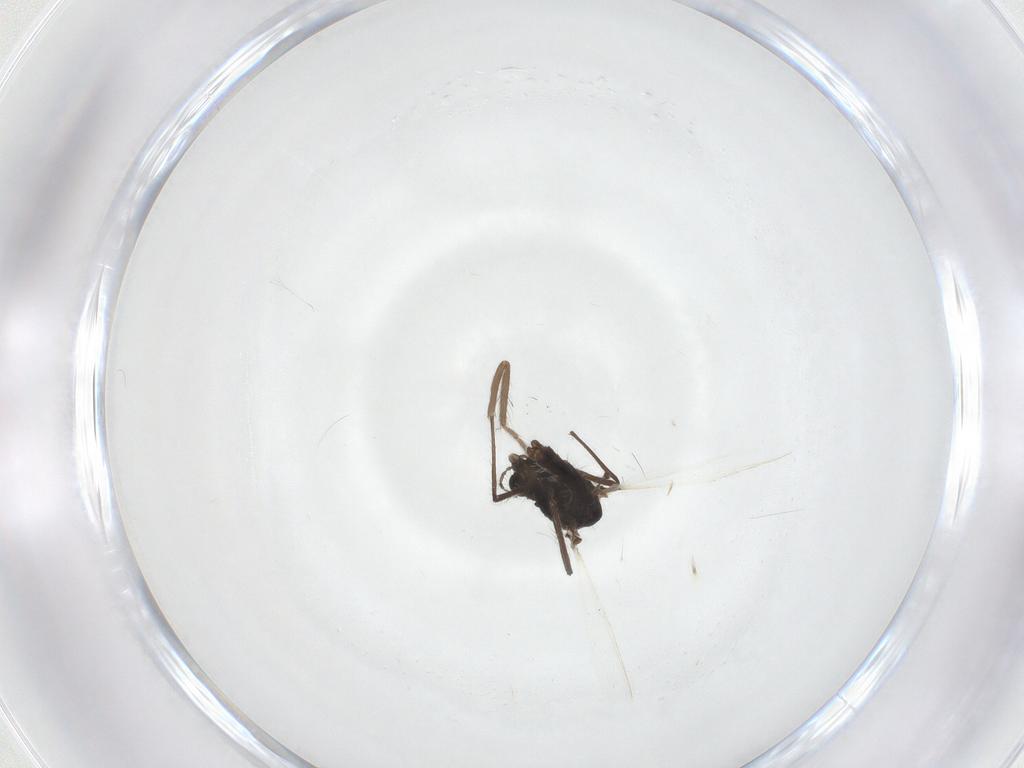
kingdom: Animalia
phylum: Arthropoda
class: Insecta
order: Diptera
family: Ceratopogonidae
